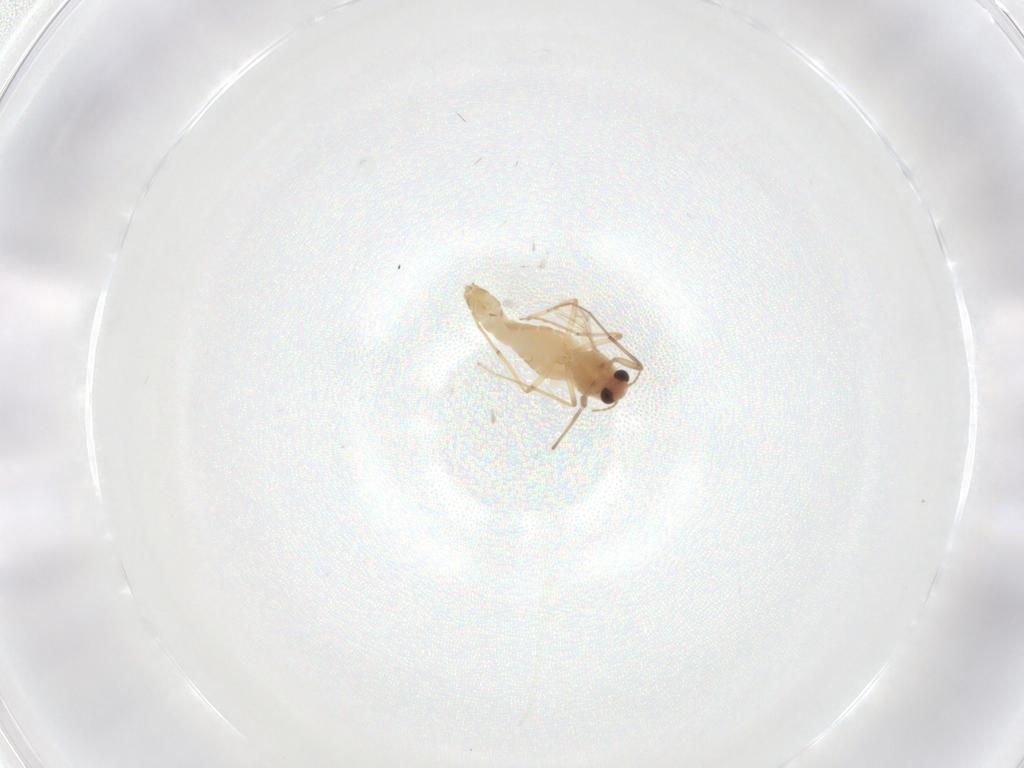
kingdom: Animalia
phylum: Arthropoda
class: Insecta
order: Diptera
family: Chironomidae
